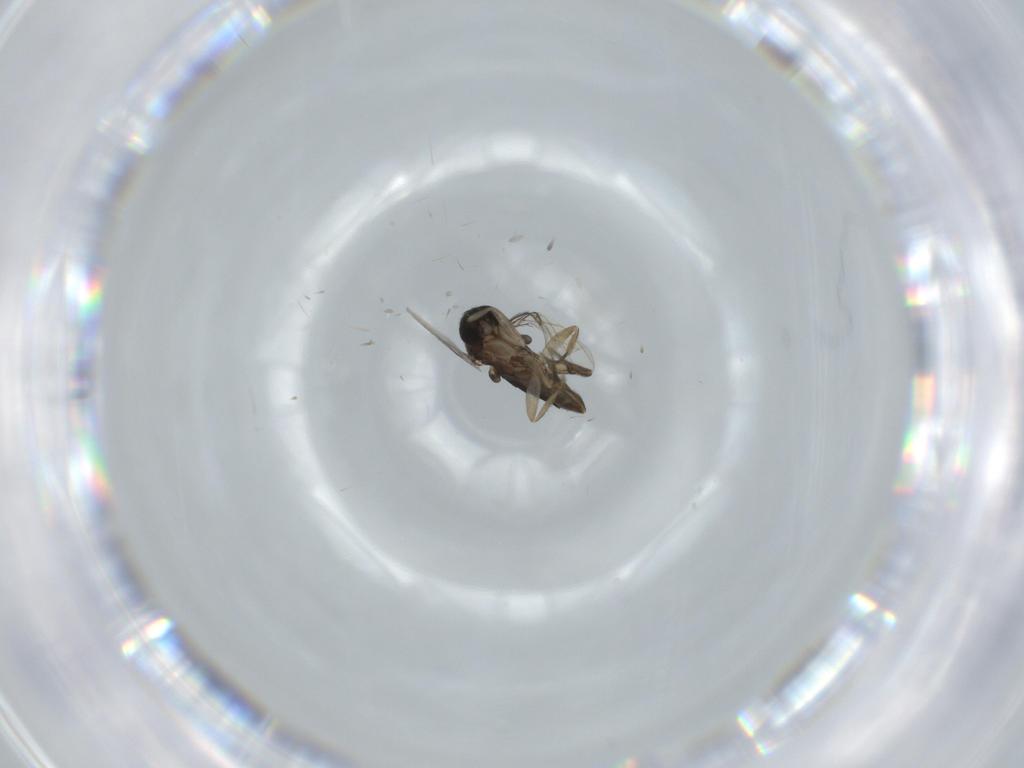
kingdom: Animalia
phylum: Arthropoda
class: Insecta
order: Diptera
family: Phoridae
